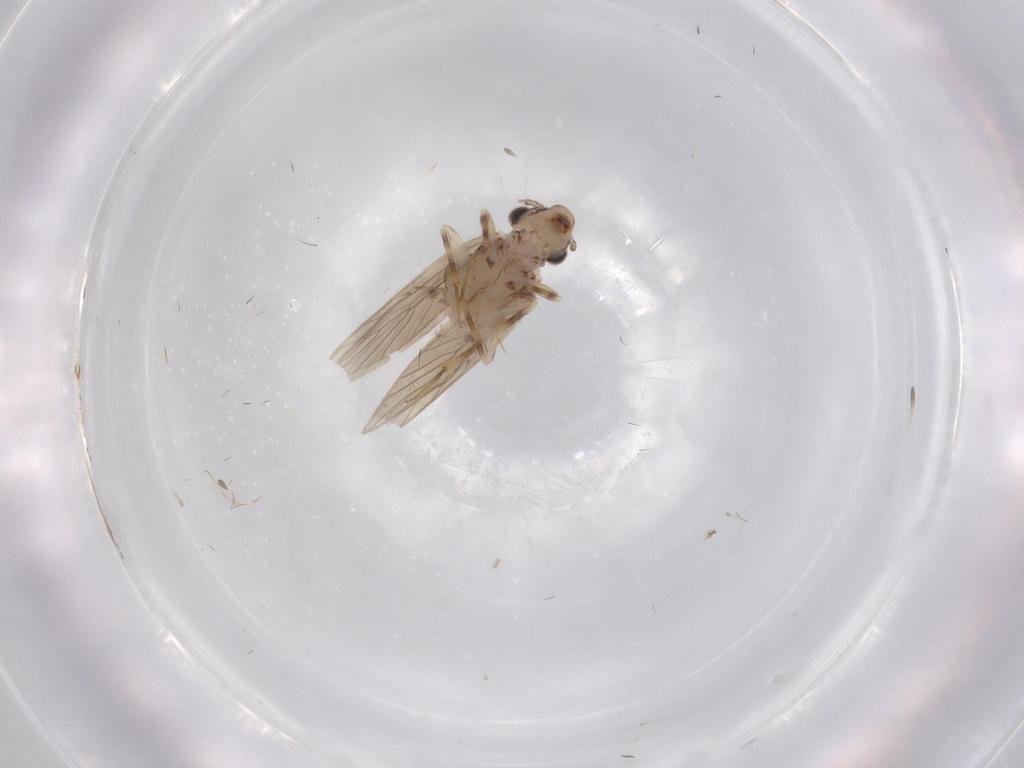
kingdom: Animalia
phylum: Arthropoda
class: Insecta
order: Psocodea
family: Lepidopsocidae
